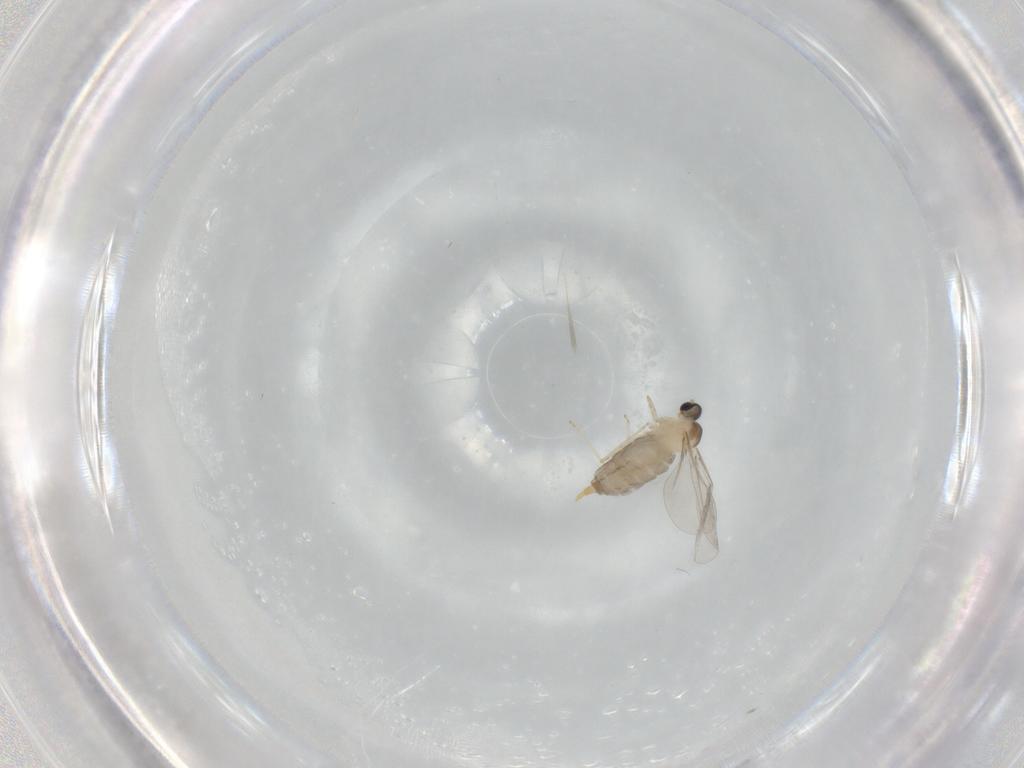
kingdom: Animalia
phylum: Arthropoda
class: Insecta
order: Diptera
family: Phoridae
